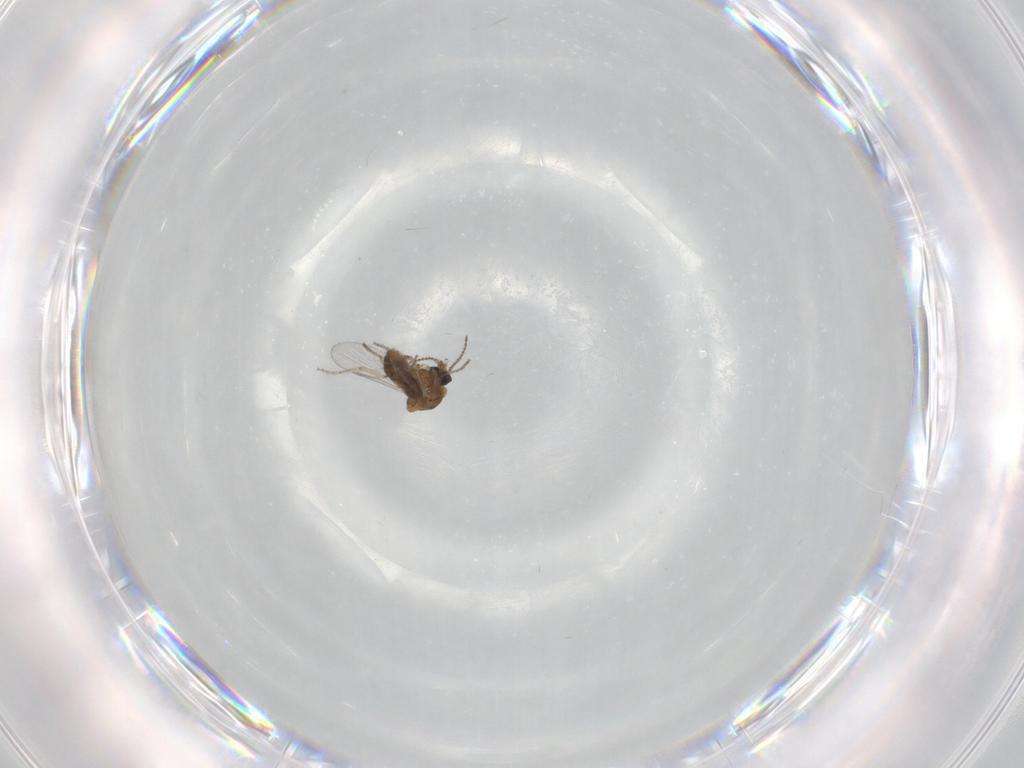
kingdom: Animalia
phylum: Arthropoda
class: Insecta
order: Diptera
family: Ceratopogonidae
